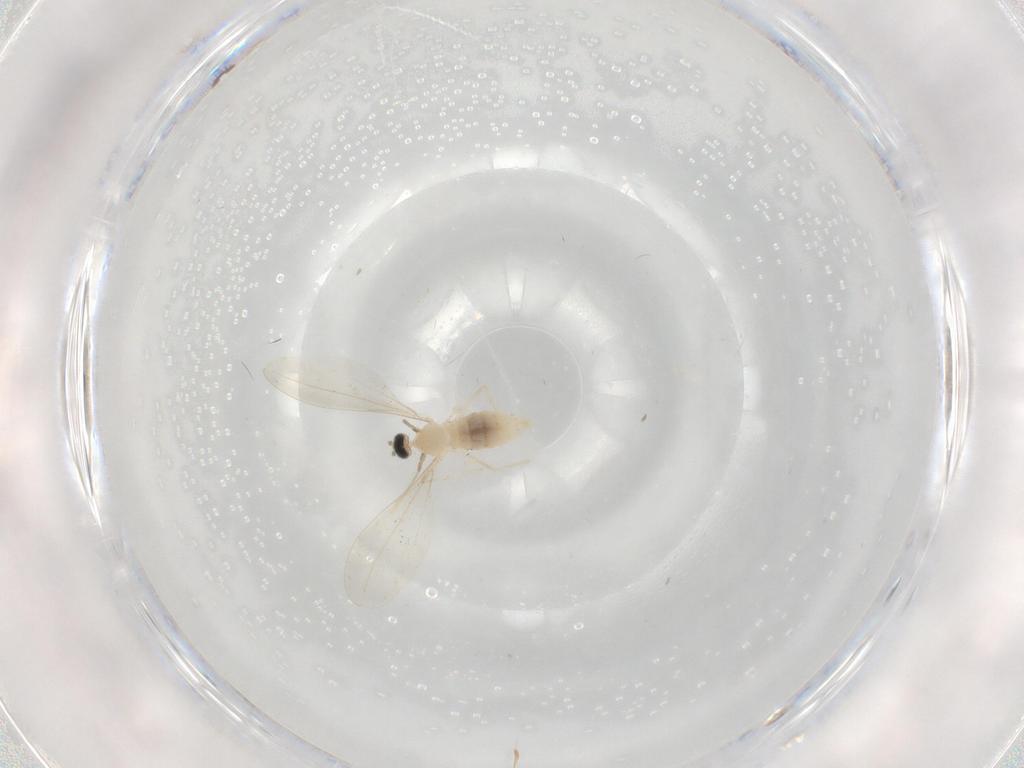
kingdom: Animalia
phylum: Arthropoda
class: Insecta
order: Diptera
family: Cecidomyiidae
